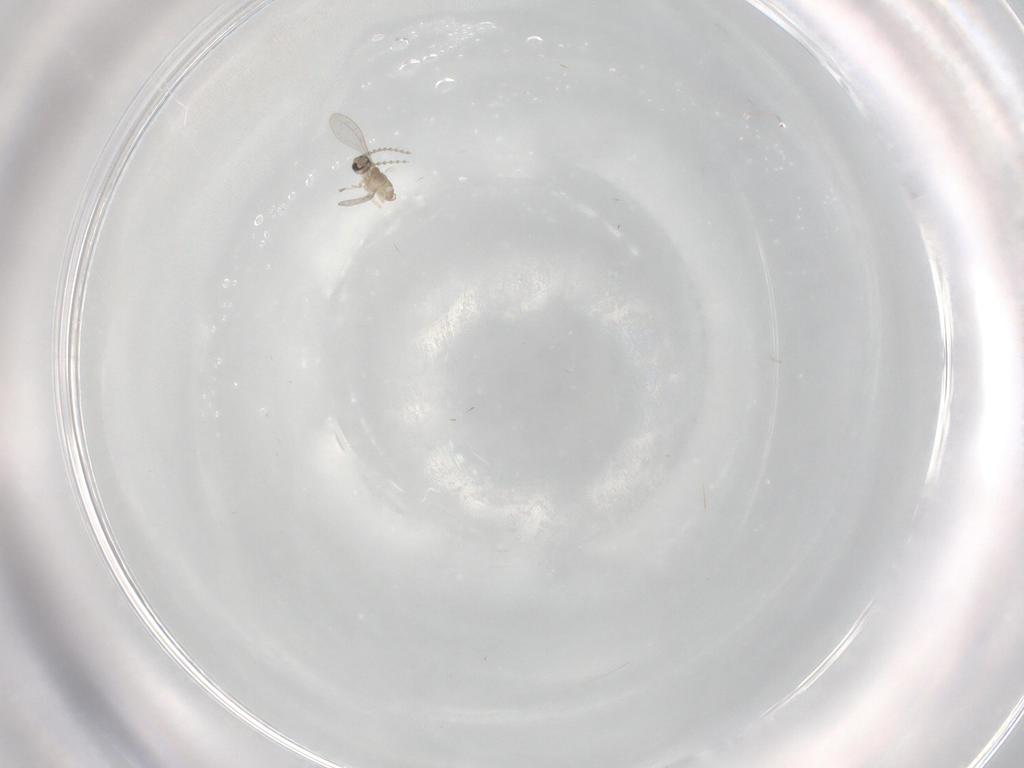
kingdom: Animalia
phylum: Arthropoda
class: Insecta
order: Diptera
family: Cecidomyiidae
